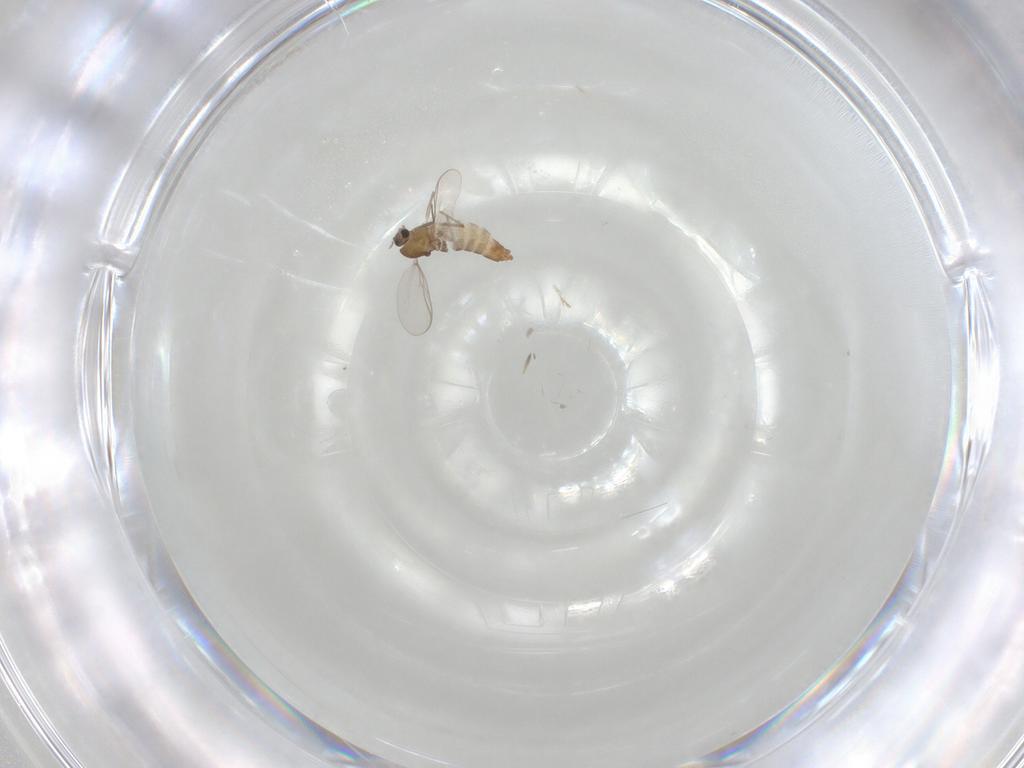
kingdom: Animalia
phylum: Arthropoda
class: Insecta
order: Diptera
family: Chironomidae
